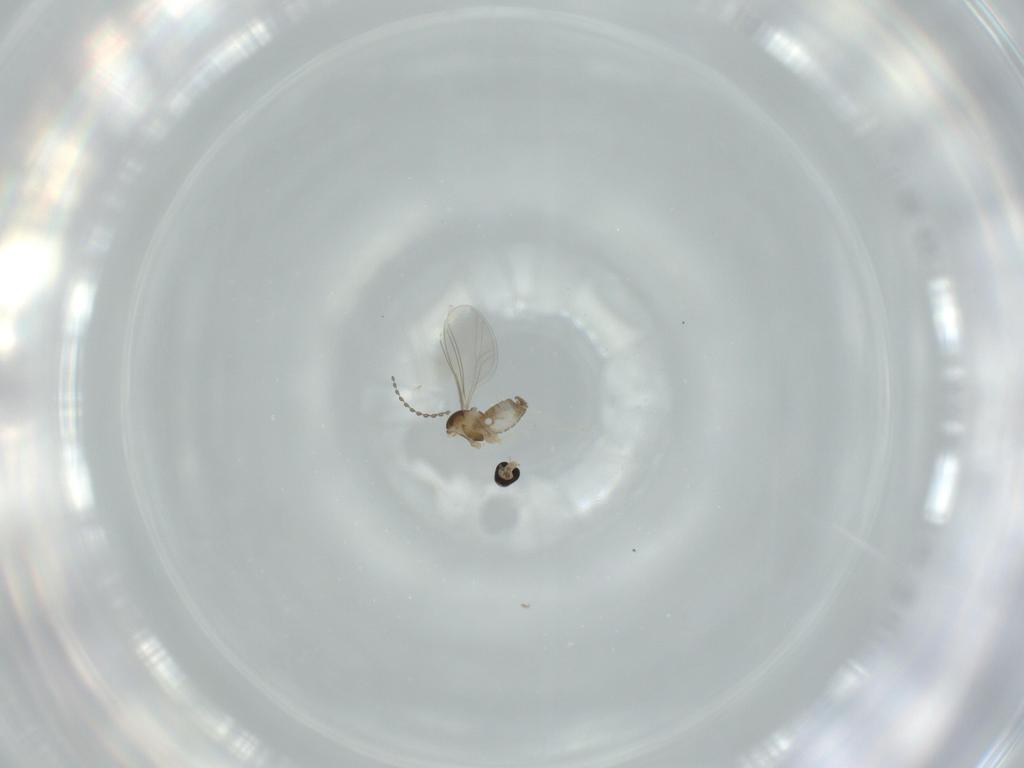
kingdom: Animalia
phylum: Arthropoda
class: Insecta
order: Diptera
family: Cecidomyiidae
